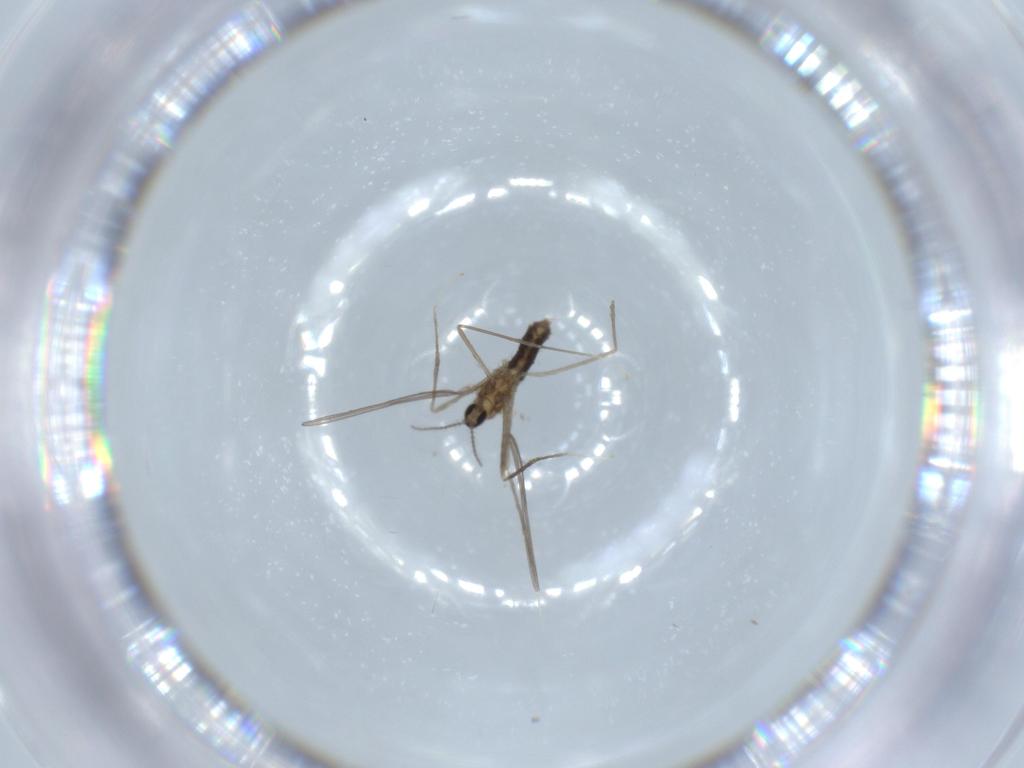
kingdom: Animalia
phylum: Arthropoda
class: Insecta
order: Diptera
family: Cecidomyiidae
